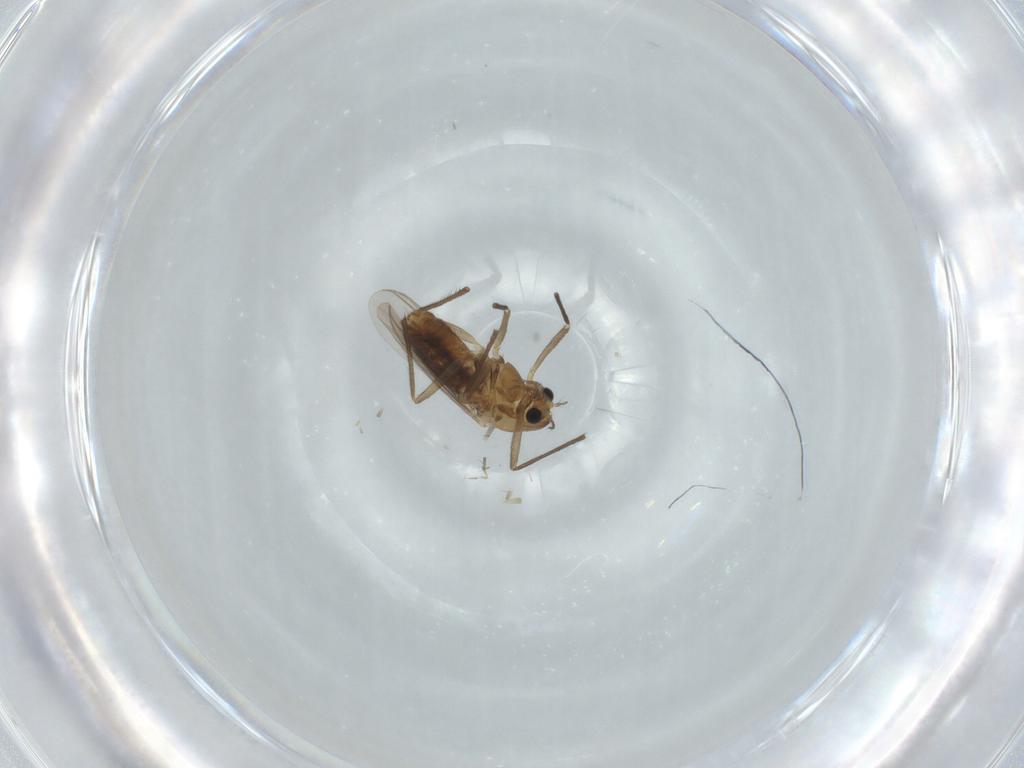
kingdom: Animalia
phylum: Arthropoda
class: Insecta
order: Diptera
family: Chironomidae
